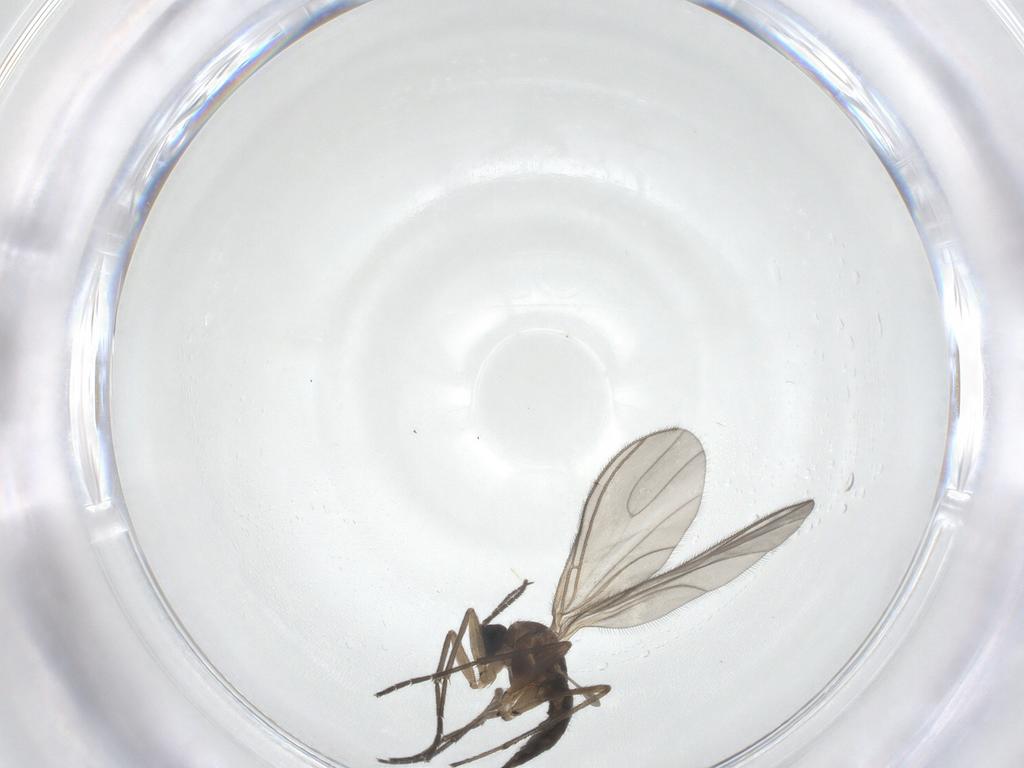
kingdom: Animalia
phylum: Arthropoda
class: Insecta
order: Diptera
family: Sciaridae
